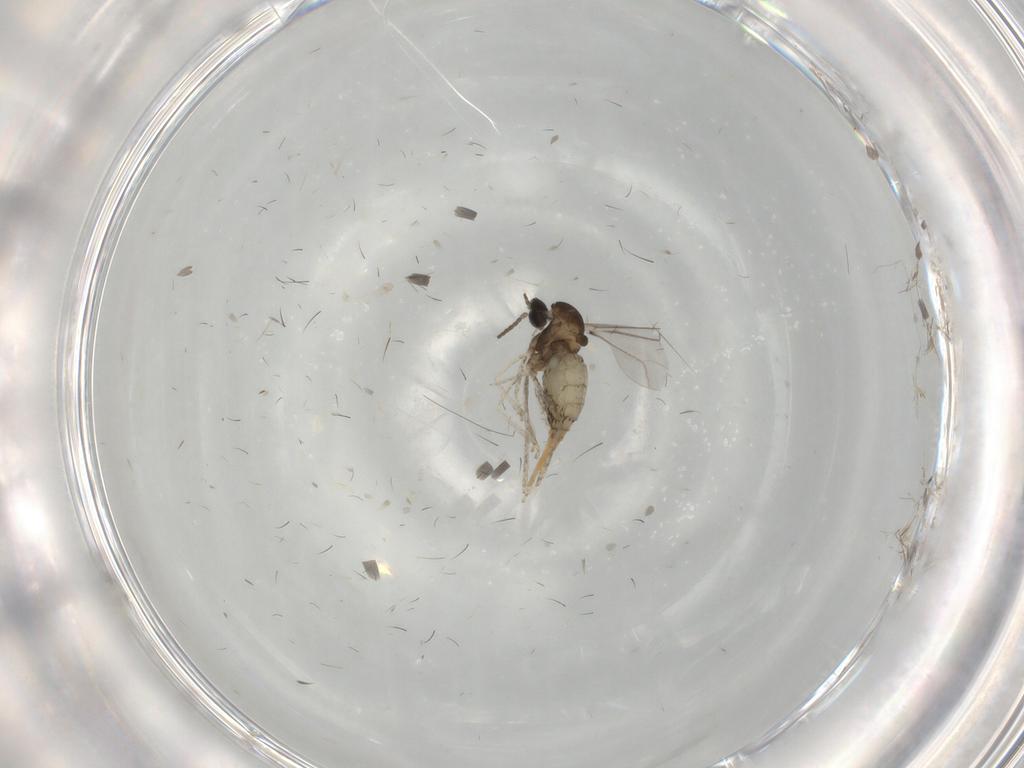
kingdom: Animalia
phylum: Arthropoda
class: Insecta
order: Diptera
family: Cecidomyiidae
